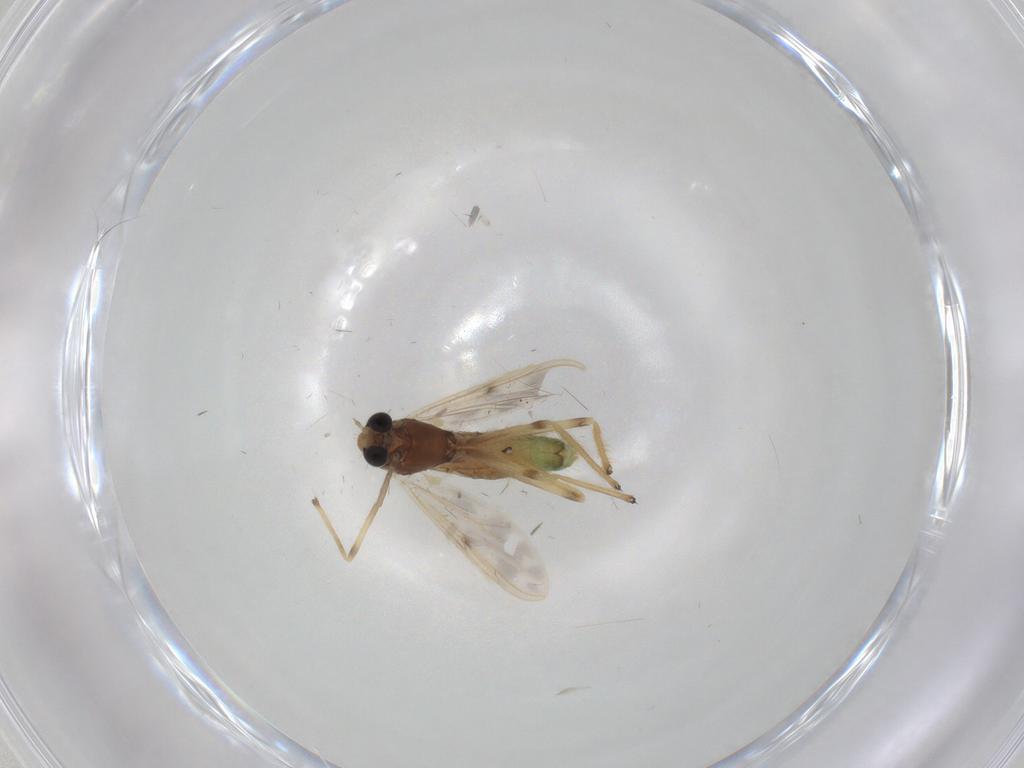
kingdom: Animalia
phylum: Arthropoda
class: Insecta
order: Diptera
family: Chironomidae
